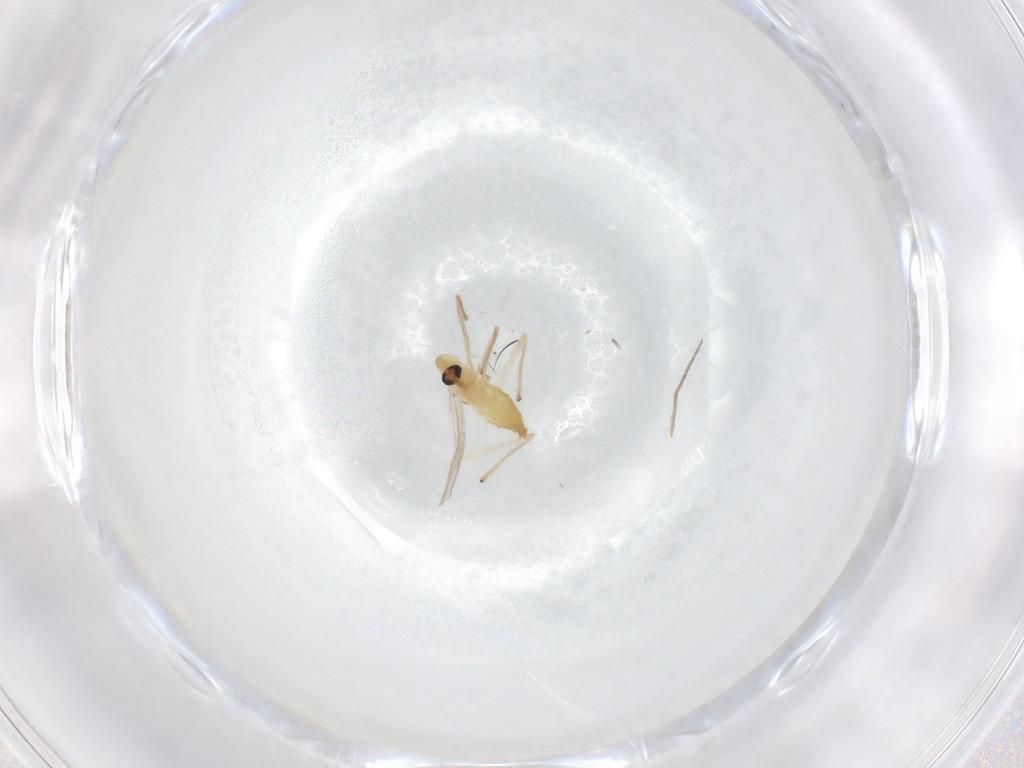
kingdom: Animalia
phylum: Arthropoda
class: Insecta
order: Diptera
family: Chironomidae
